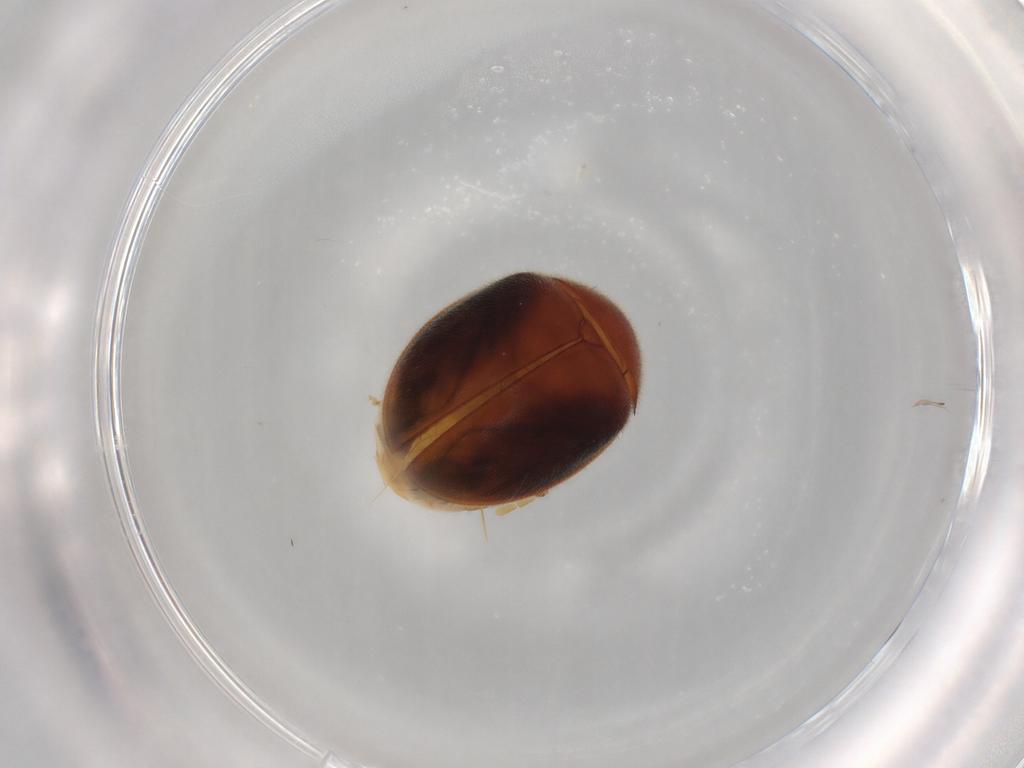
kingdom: Animalia
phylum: Arthropoda
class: Insecta
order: Coleoptera
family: Scirtidae
